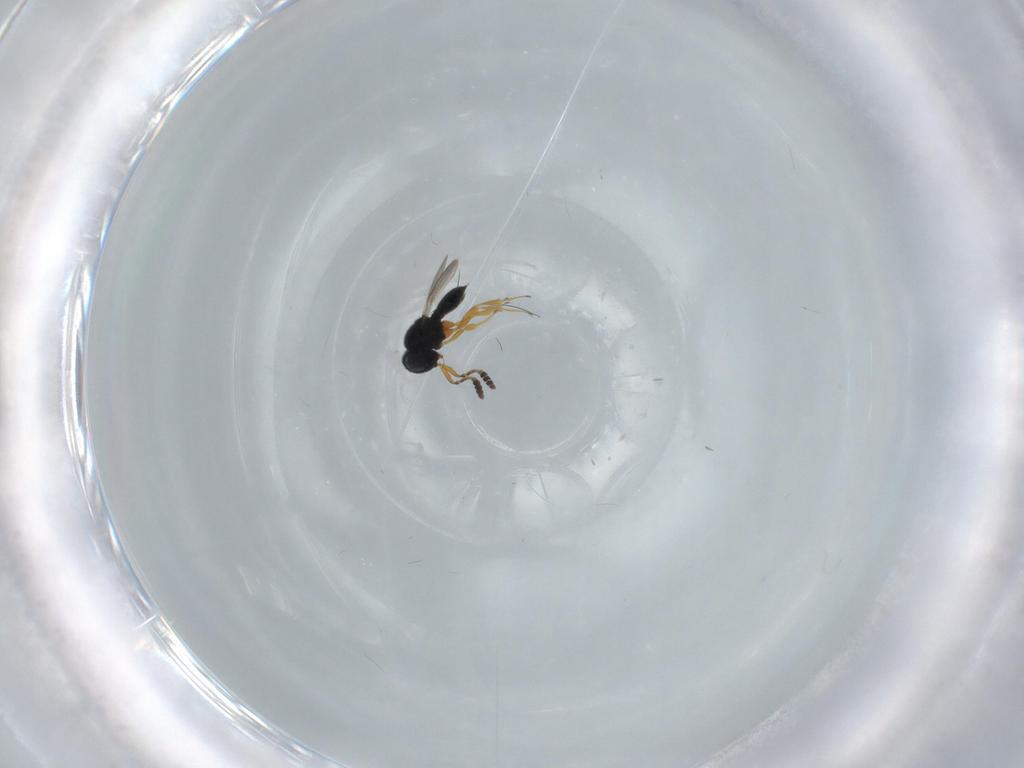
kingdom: Animalia
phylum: Arthropoda
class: Insecta
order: Hymenoptera
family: Scelionidae
